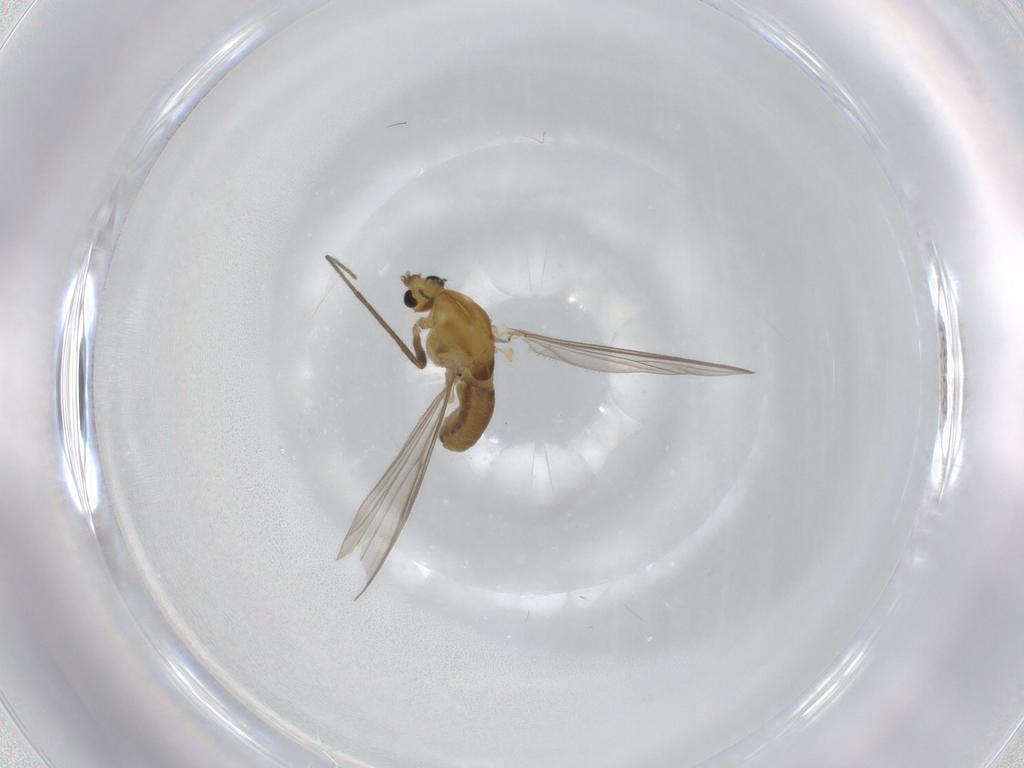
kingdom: Animalia
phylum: Arthropoda
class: Insecta
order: Diptera
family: Chironomidae
